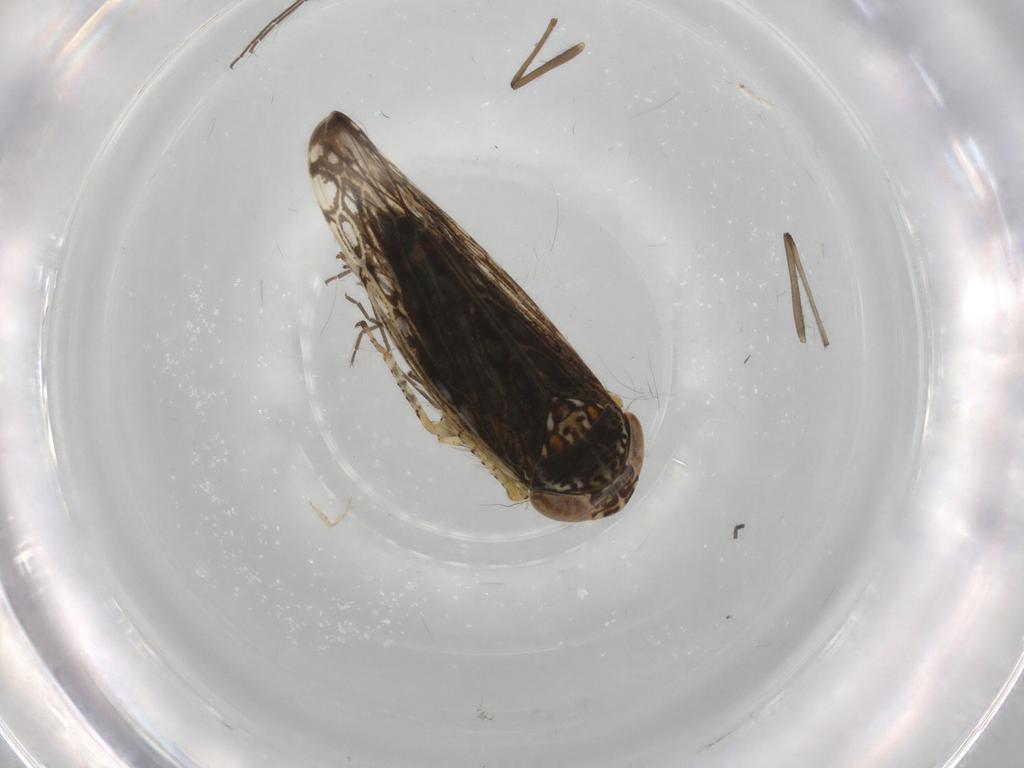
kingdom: Animalia
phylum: Arthropoda
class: Insecta
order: Hemiptera
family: Cicadellidae
